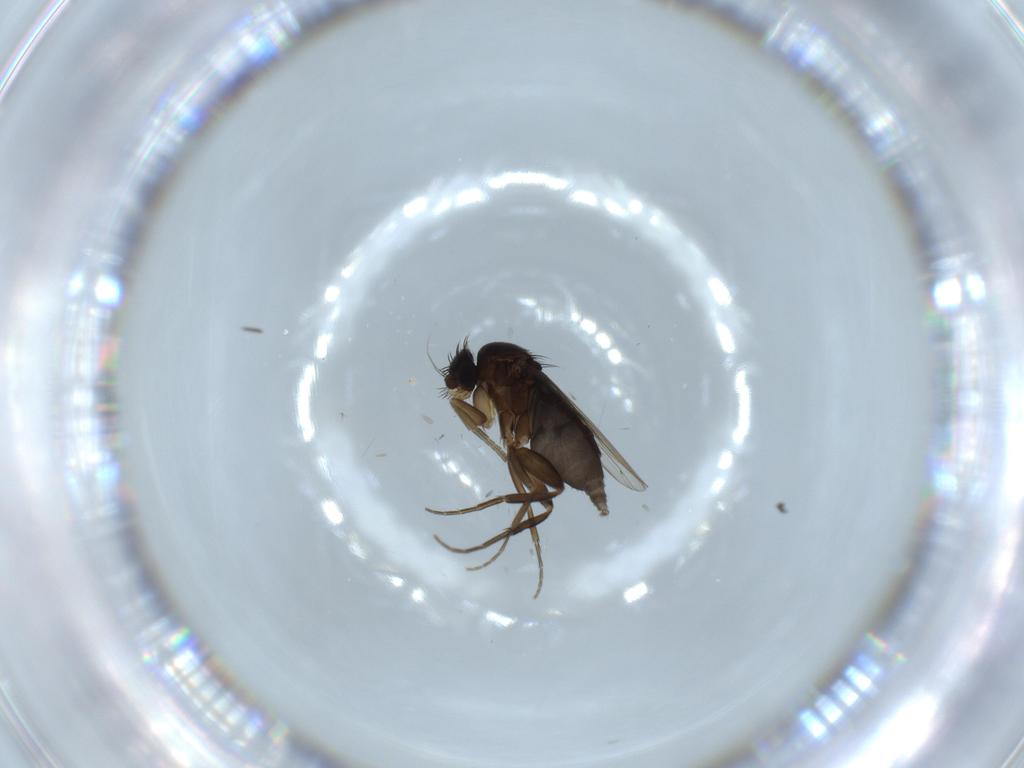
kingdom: Animalia
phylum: Arthropoda
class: Insecta
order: Diptera
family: Phoridae
